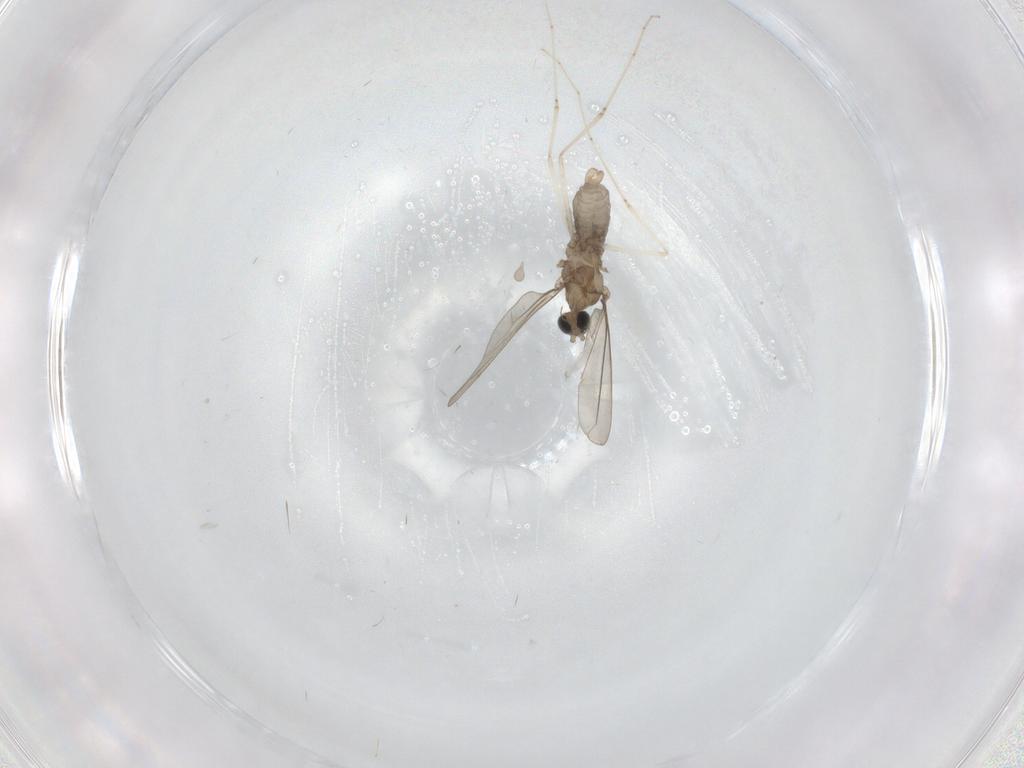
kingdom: Animalia
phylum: Arthropoda
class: Insecta
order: Diptera
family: Cecidomyiidae
